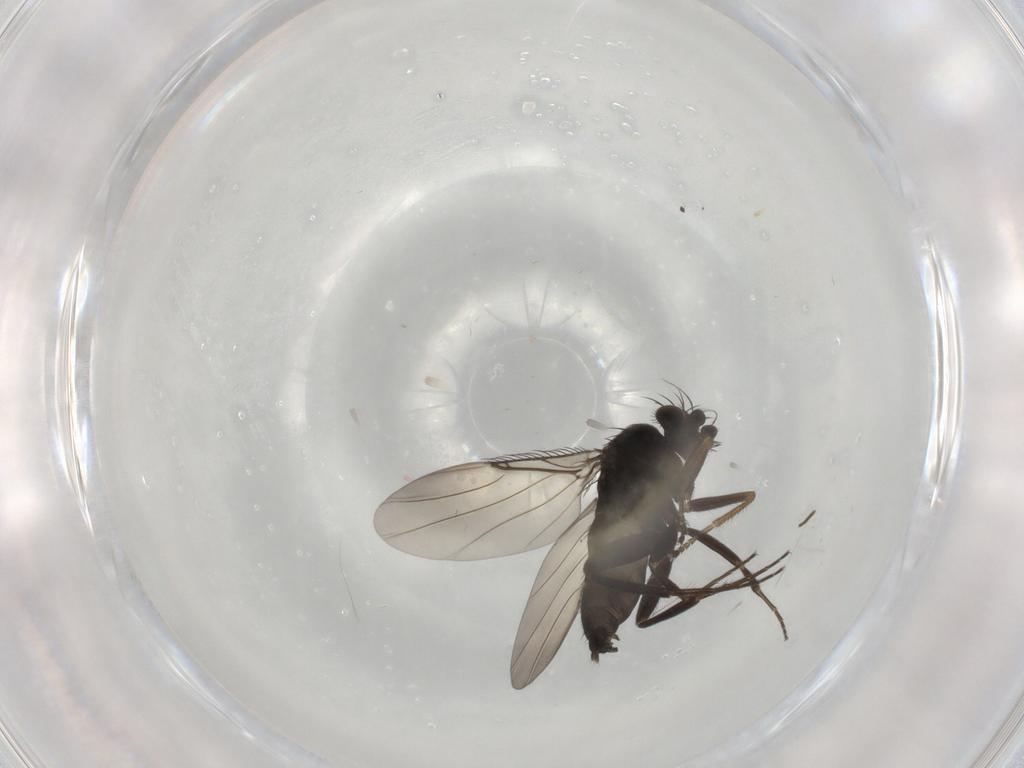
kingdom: Animalia
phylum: Arthropoda
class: Insecta
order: Diptera
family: Phoridae
